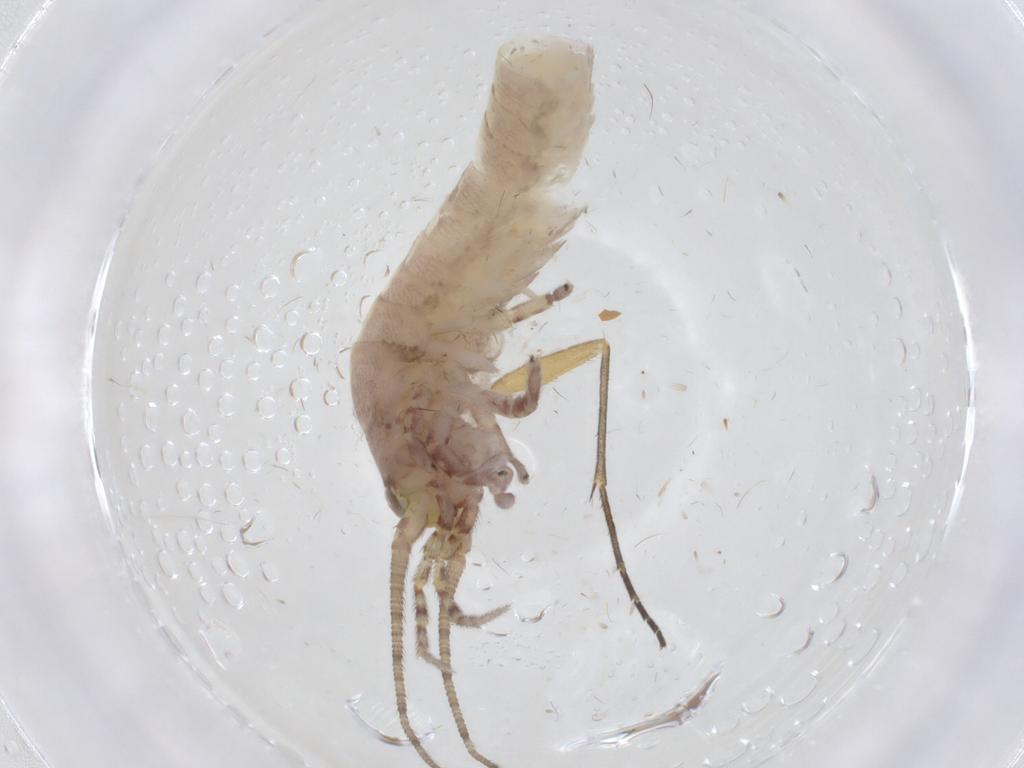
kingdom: Animalia
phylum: Arthropoda
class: Insecta
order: Archaeognatha
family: Machilidae
